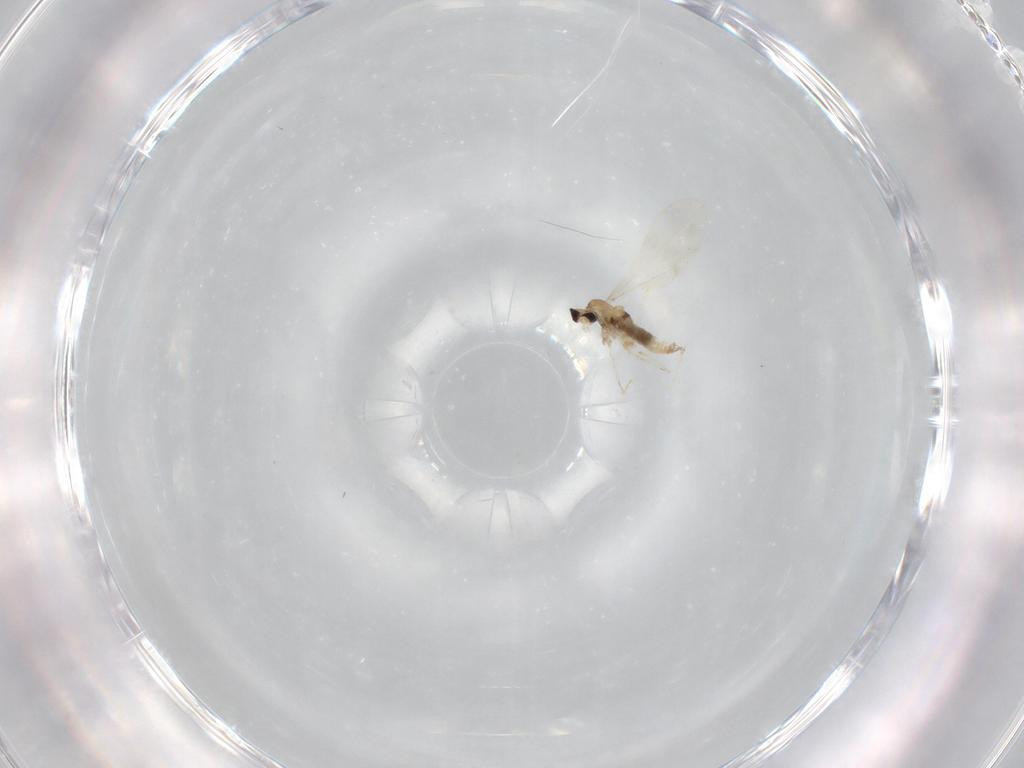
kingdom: Animalia
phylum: Arthropoda
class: Insecta
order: Diptera
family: Cecidomyiidae
